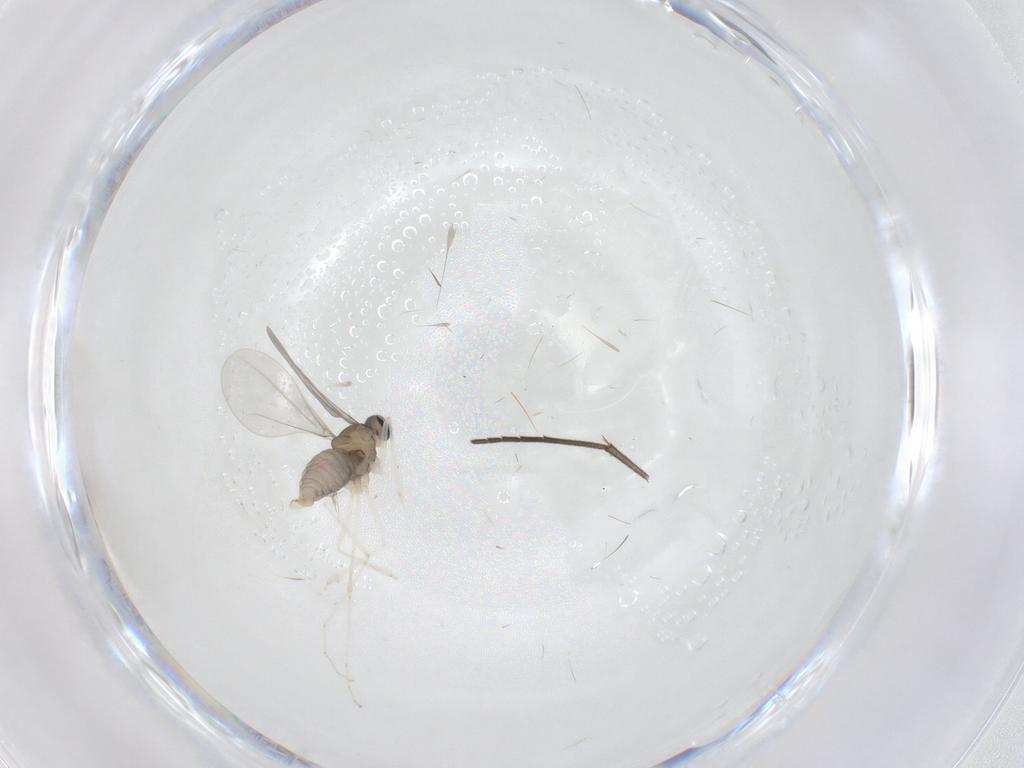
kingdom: Animalia
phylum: Arthropoda
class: Insecta
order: Diptera
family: Cecidomyiidae
